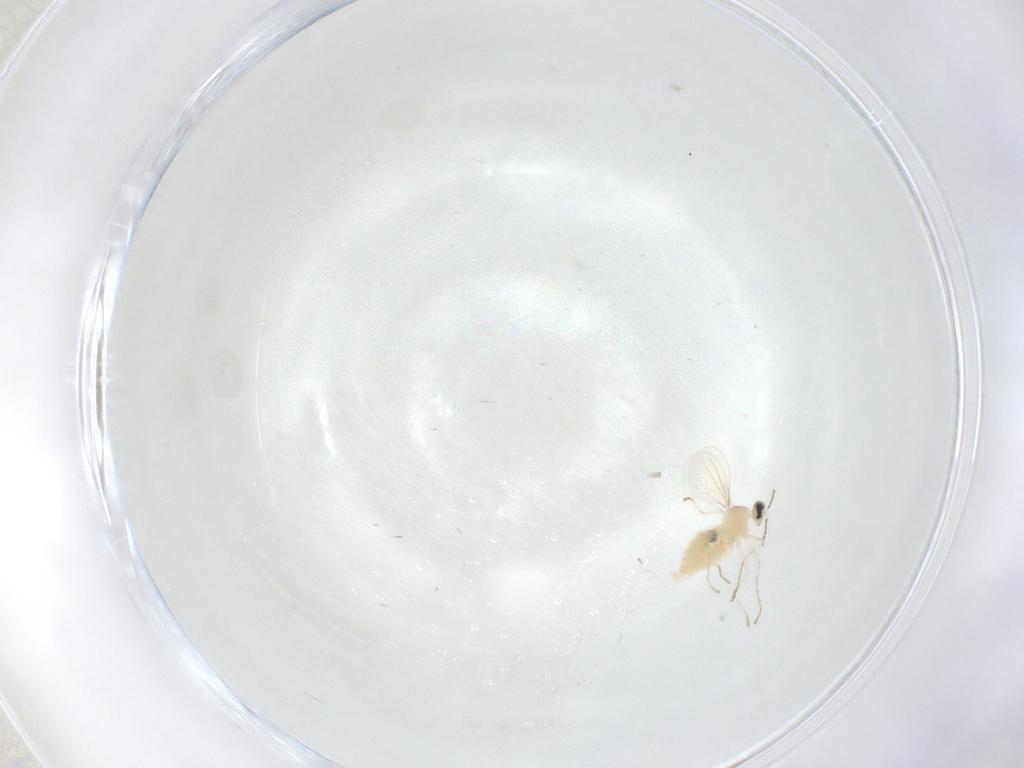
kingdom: Animalia
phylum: Arthropoda
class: Insecta
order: Diptera
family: Cecidomyiidae
